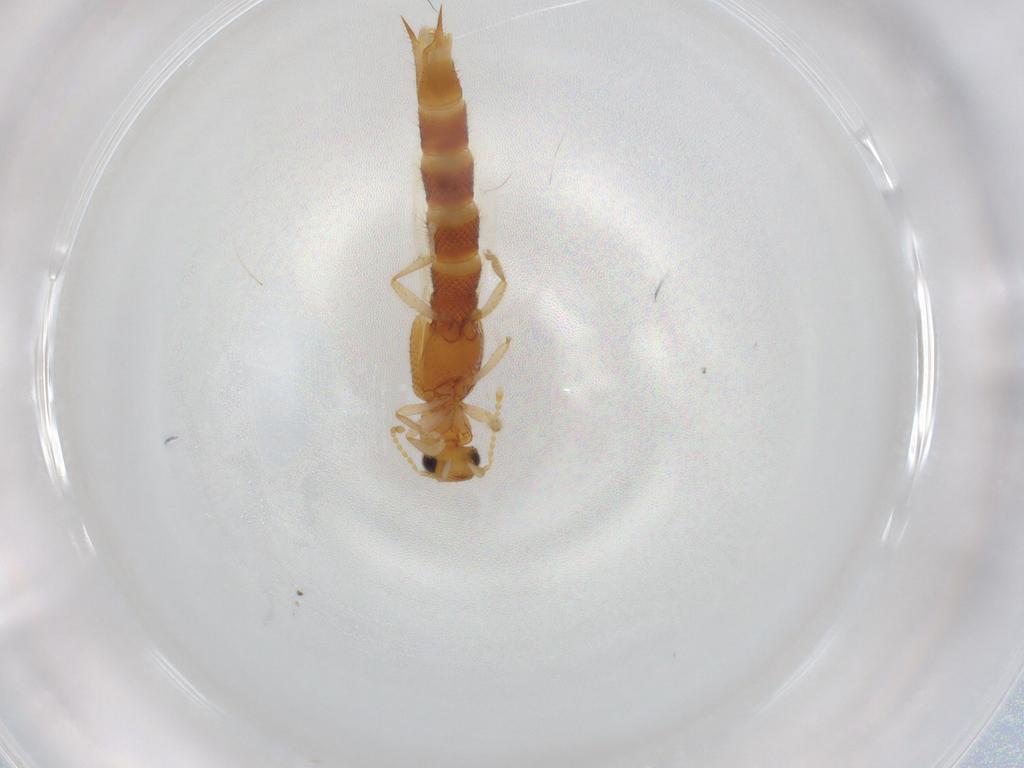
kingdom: Animalia
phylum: Arthropoda
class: Insecta
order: Coleoptera
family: Staphylinidae
